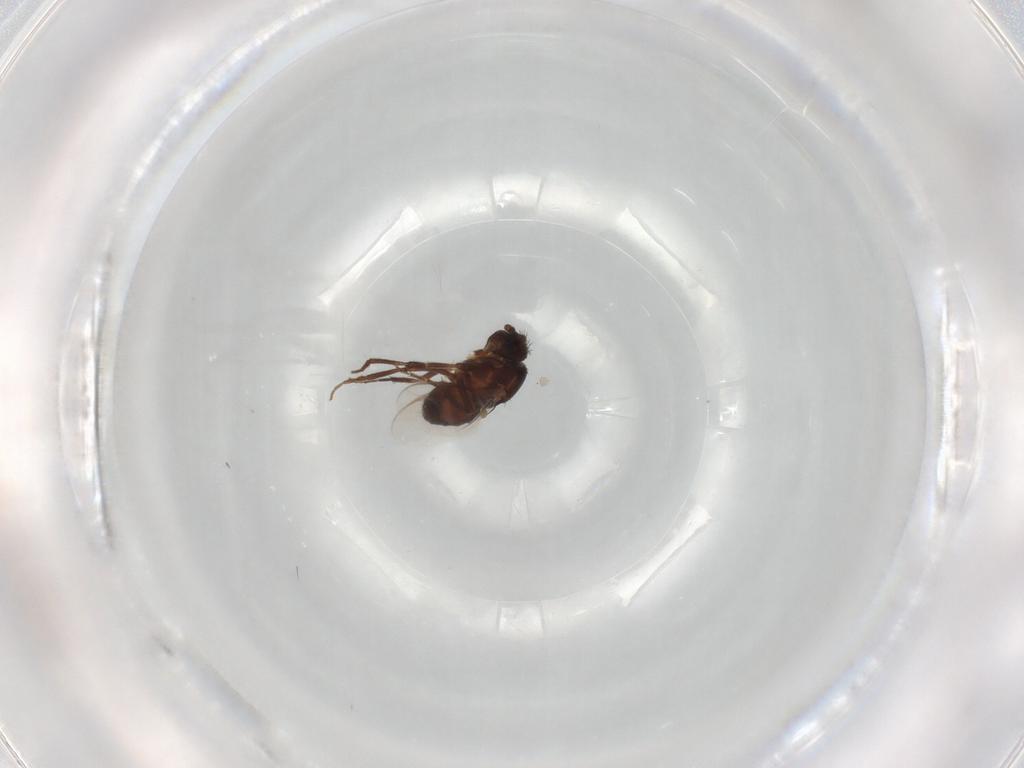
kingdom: Animalia
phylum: Arthropoda
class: Insecta
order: Diptera
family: Sphaeroceridae
